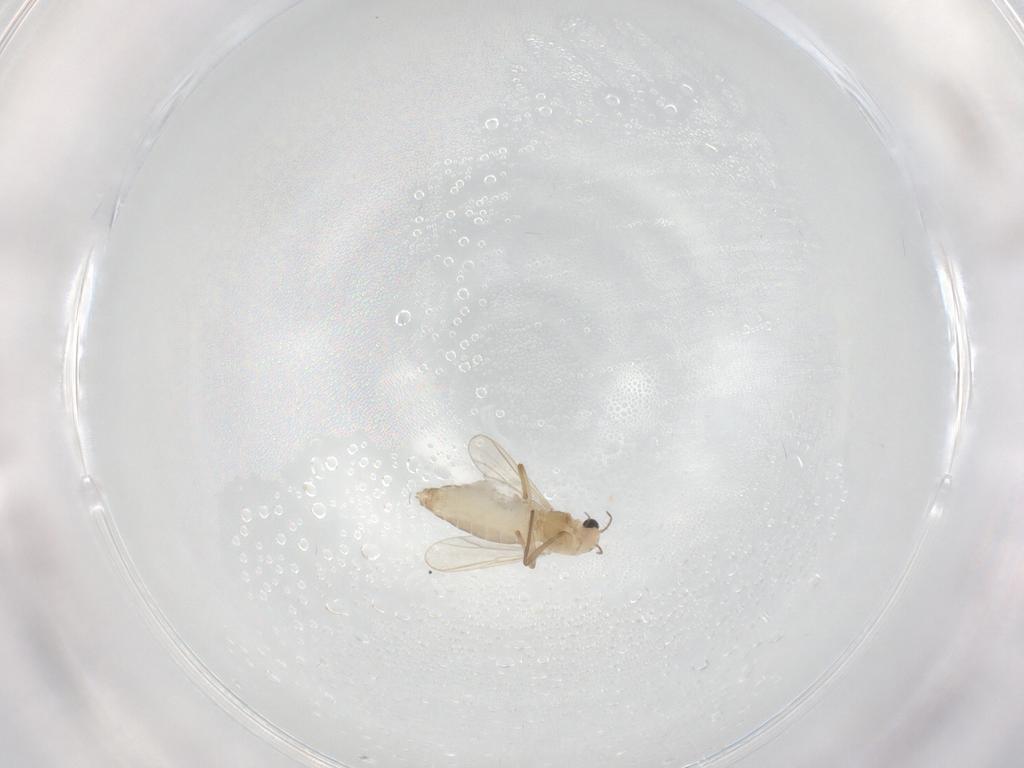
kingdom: Animalia
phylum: Arthropoda
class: Insecta
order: Diptera
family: Chironomidae
